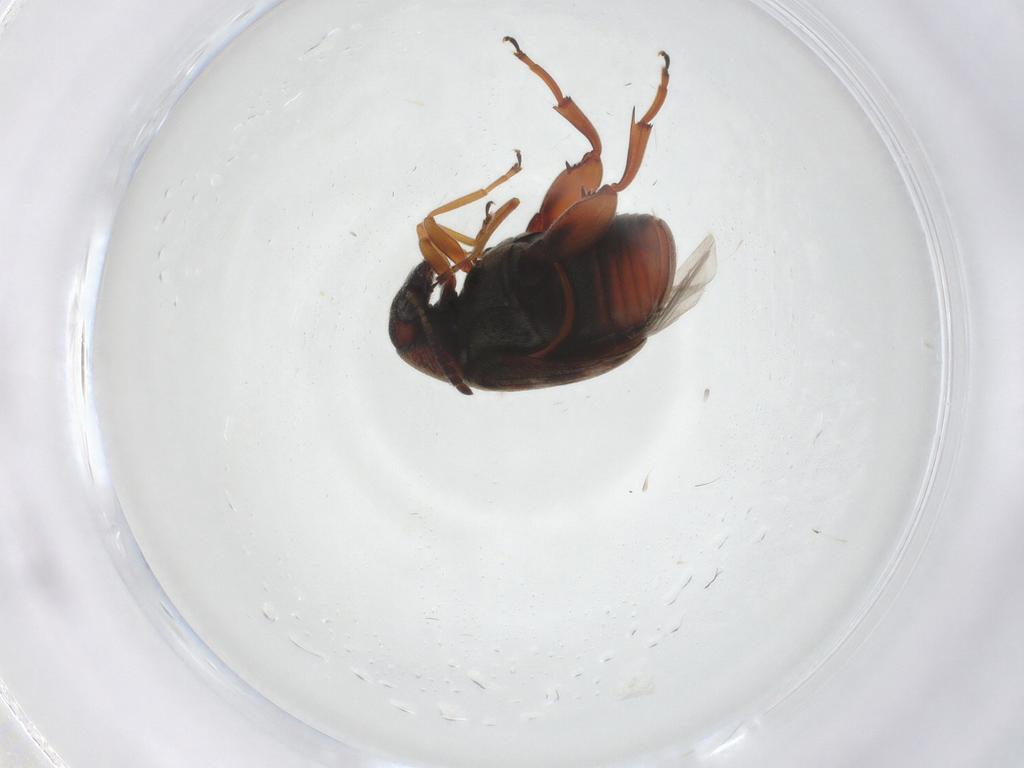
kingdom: Animalia
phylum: Arthropoda
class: Insecta
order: Coleoptera
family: Chrysomelidae
